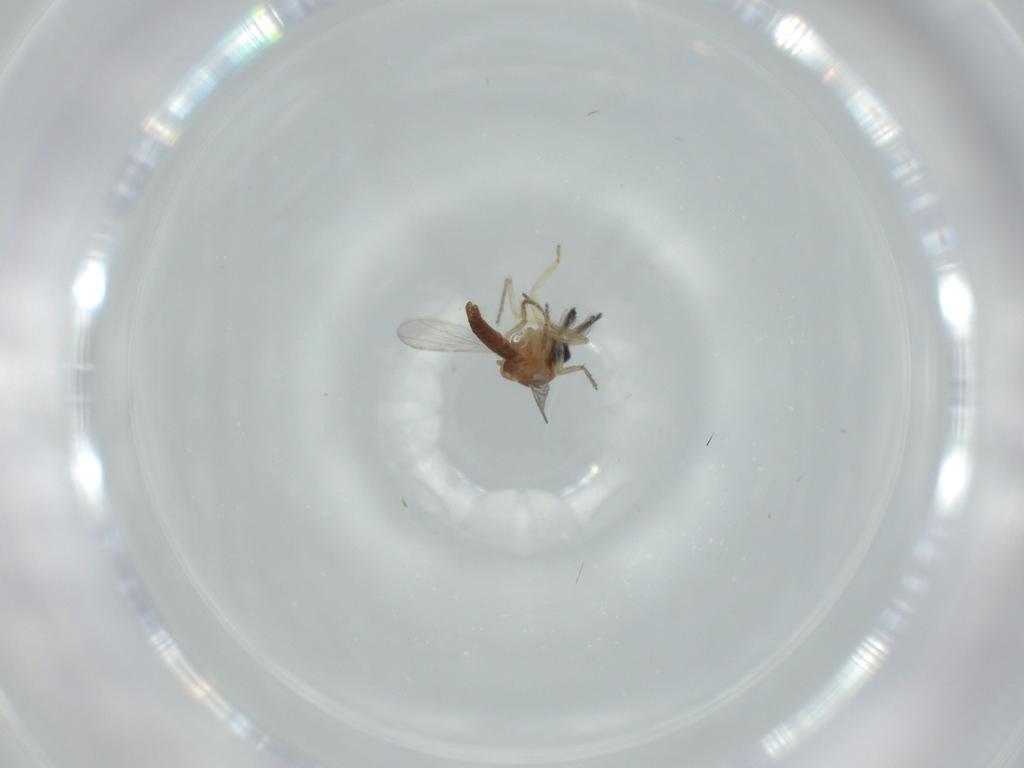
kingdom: Animalia
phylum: Arthropoda
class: Insecta
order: Diptera
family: Ceratopogonidae
